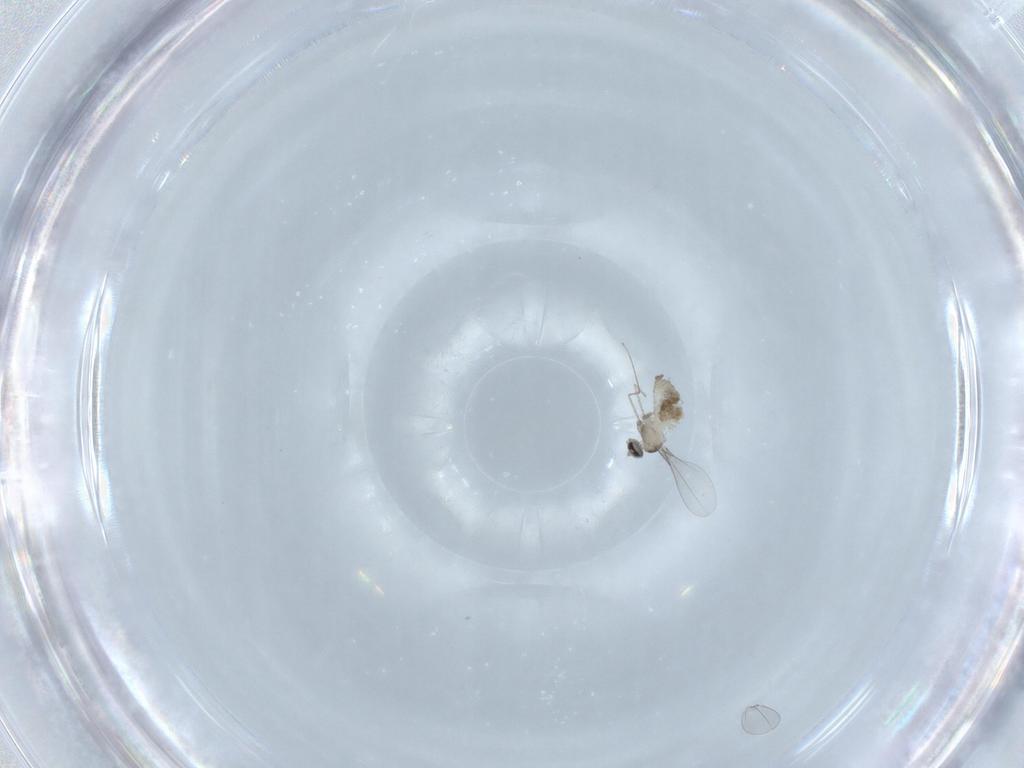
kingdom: Animalia
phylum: Arthropoda
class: Insecta
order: Diptera
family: Cecidomyiidae
